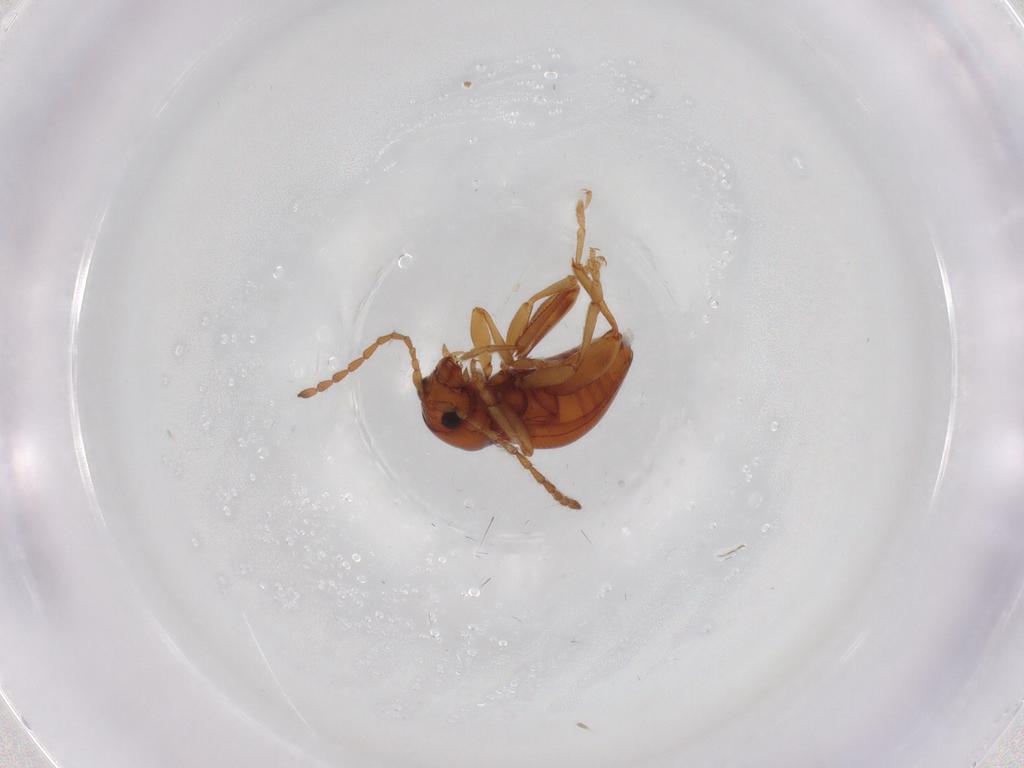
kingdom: Animalia
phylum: Arthropoda
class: Insecta
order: Coleoptera
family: Chrysomelidae
